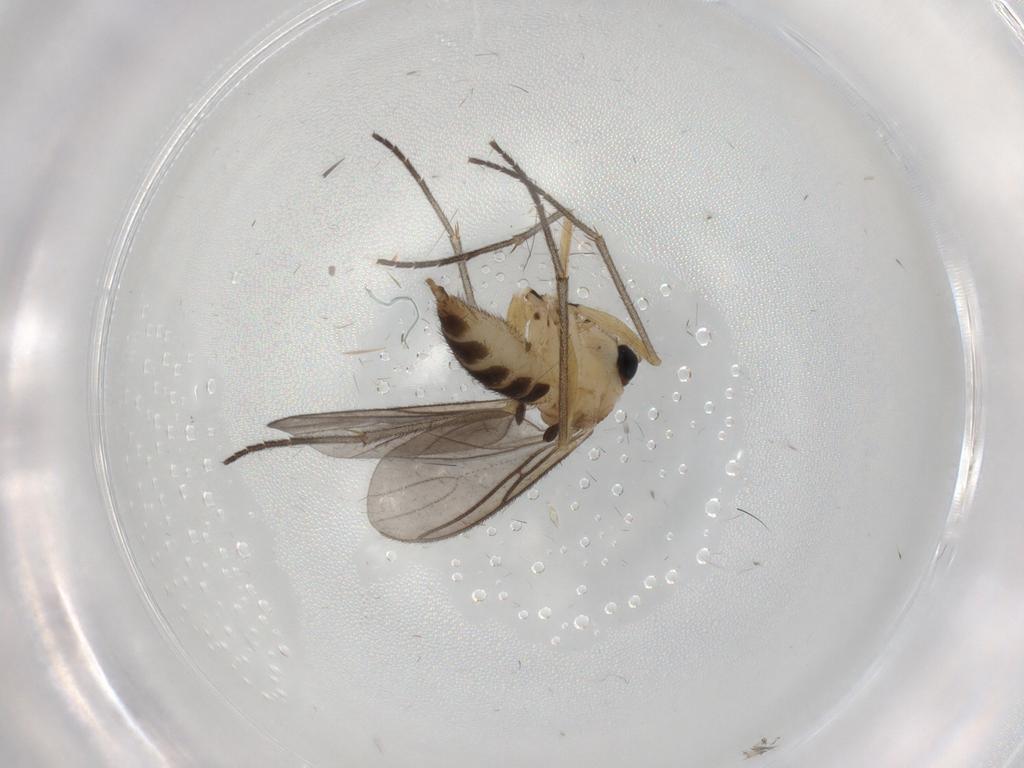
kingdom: Animalia
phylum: Arthropoda
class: Insecta
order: Diptera
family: Sciaridae
